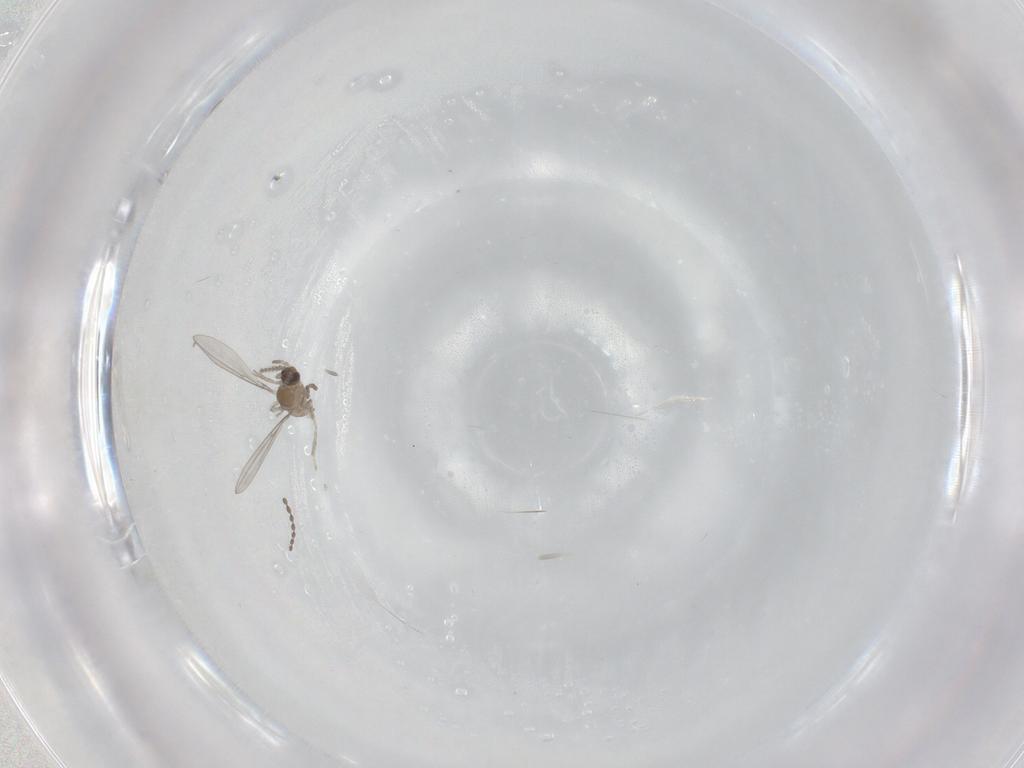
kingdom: Animalia
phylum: Arthropoda
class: Insecta
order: Diptera
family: Cecidomyiidae
